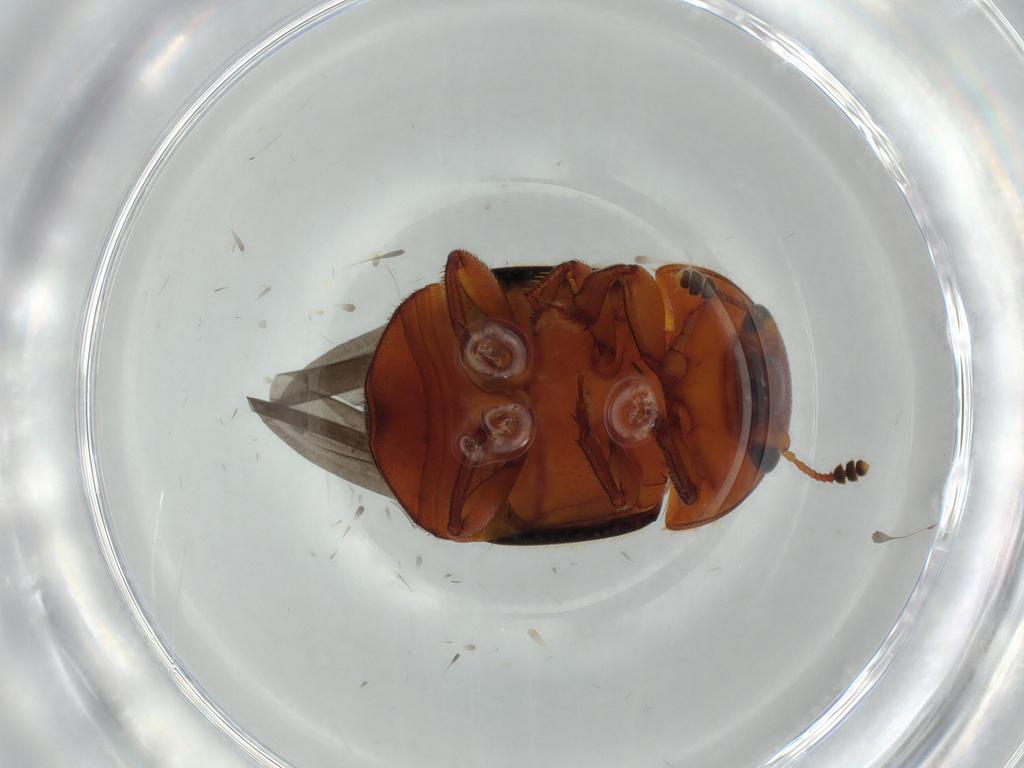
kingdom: Animalia
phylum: Arthropoda
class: Insecta
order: Coleoptera
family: Nitidulidae
